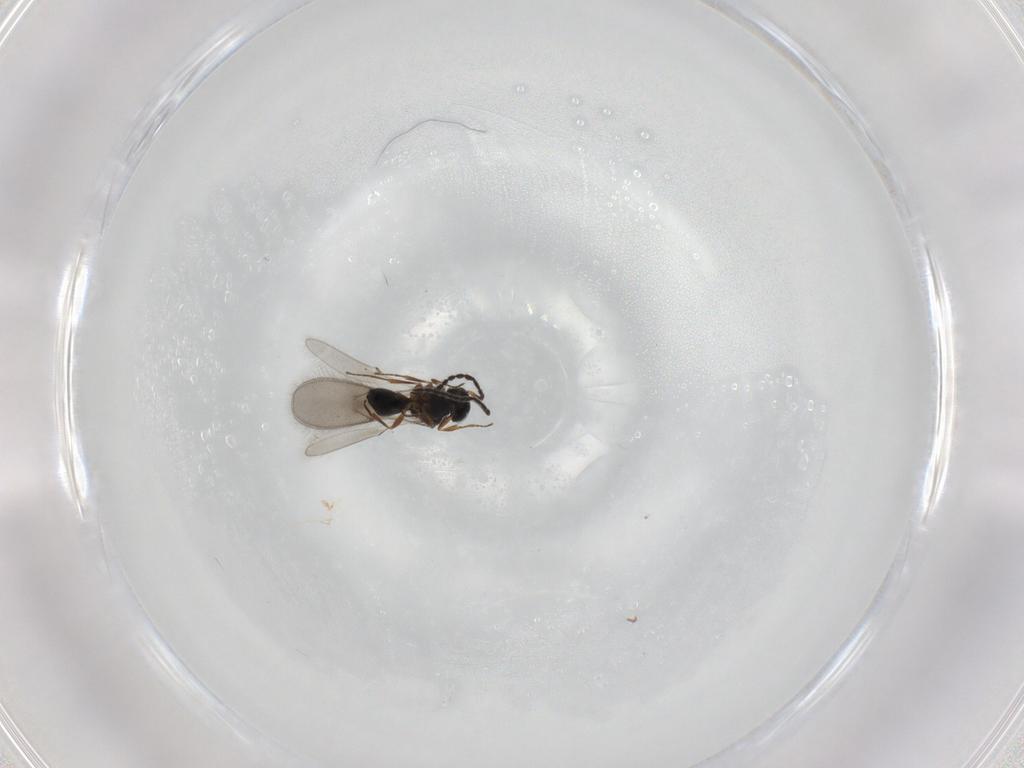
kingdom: Animalia
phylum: Arthropoda
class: Insecta
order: Hymenoptera
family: Scelionidae
